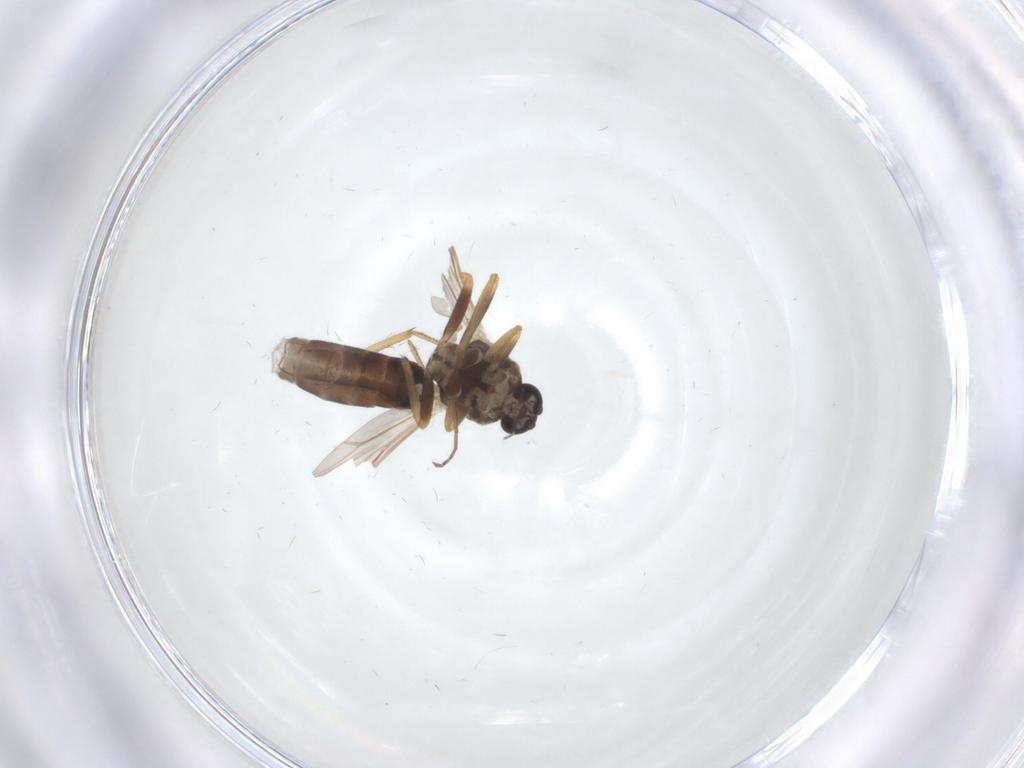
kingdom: Animalia
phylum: Arthropoda
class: Insecta
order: Diptera
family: Ceratopogonidae
